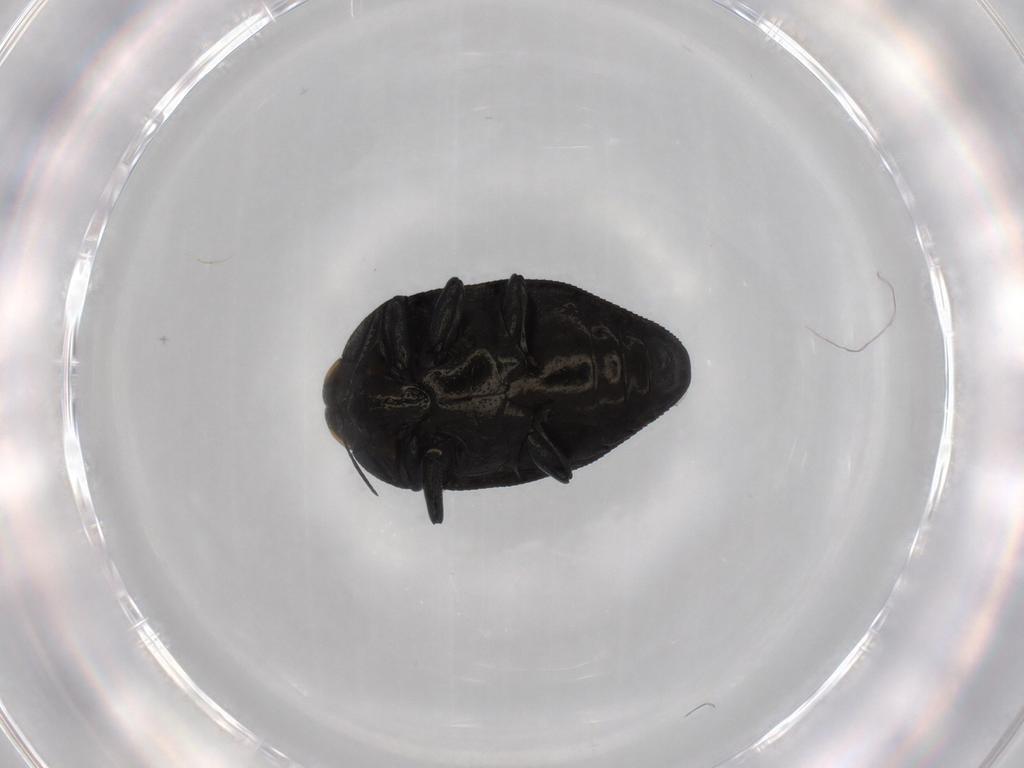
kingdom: Animalia
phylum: Arthropoda
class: Insecta
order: Coleoptera
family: Buprestidae
